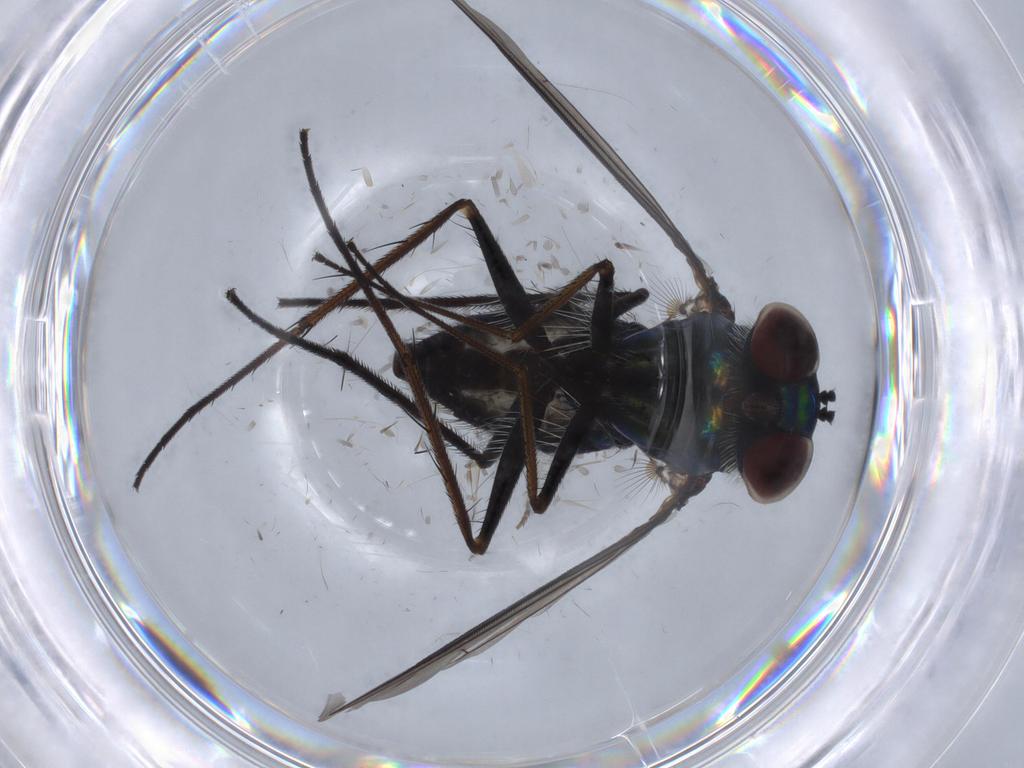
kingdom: Animalia
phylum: Arthropoda
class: Insecta
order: Diptera
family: Dolichopodidae
